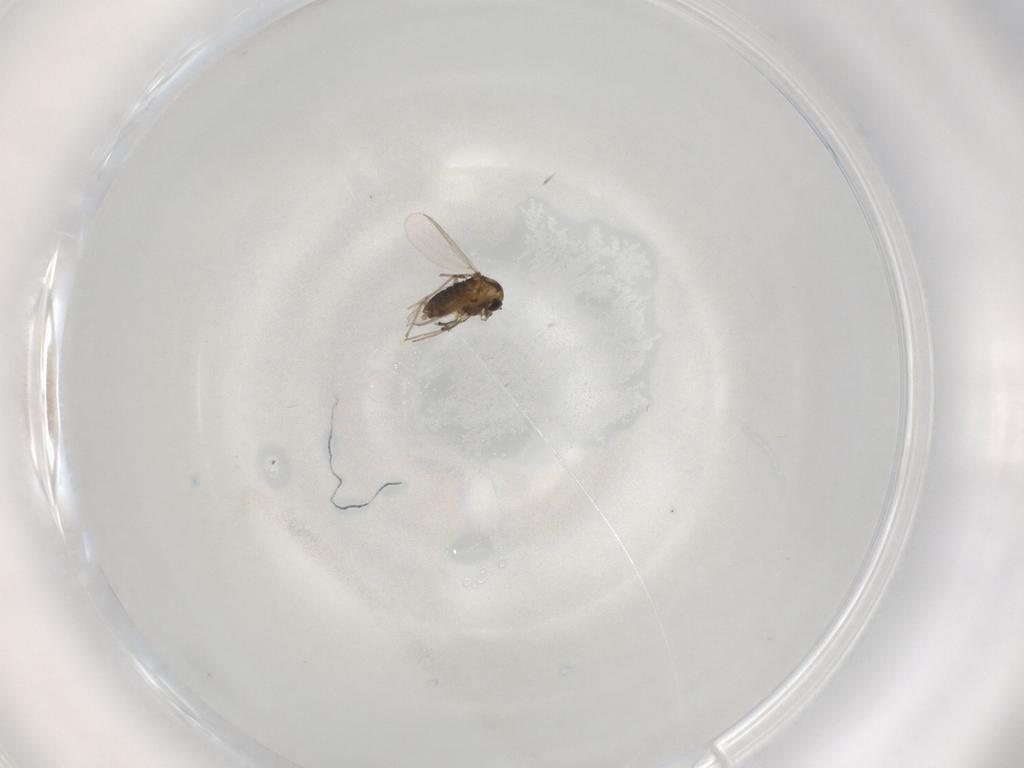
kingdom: Animalia
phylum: Arthropoda
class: Insecta
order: Diptera
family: Chironomidae
